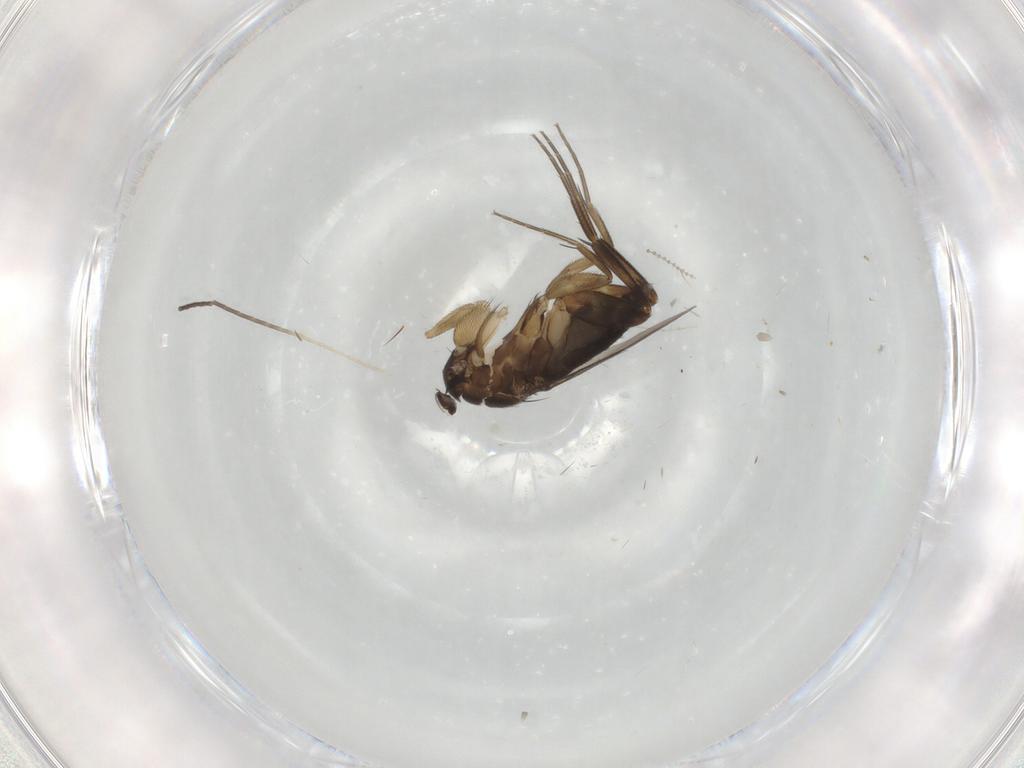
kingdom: Animalia
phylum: Arthropoda
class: Insecta
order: Diptera
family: Phoridae
